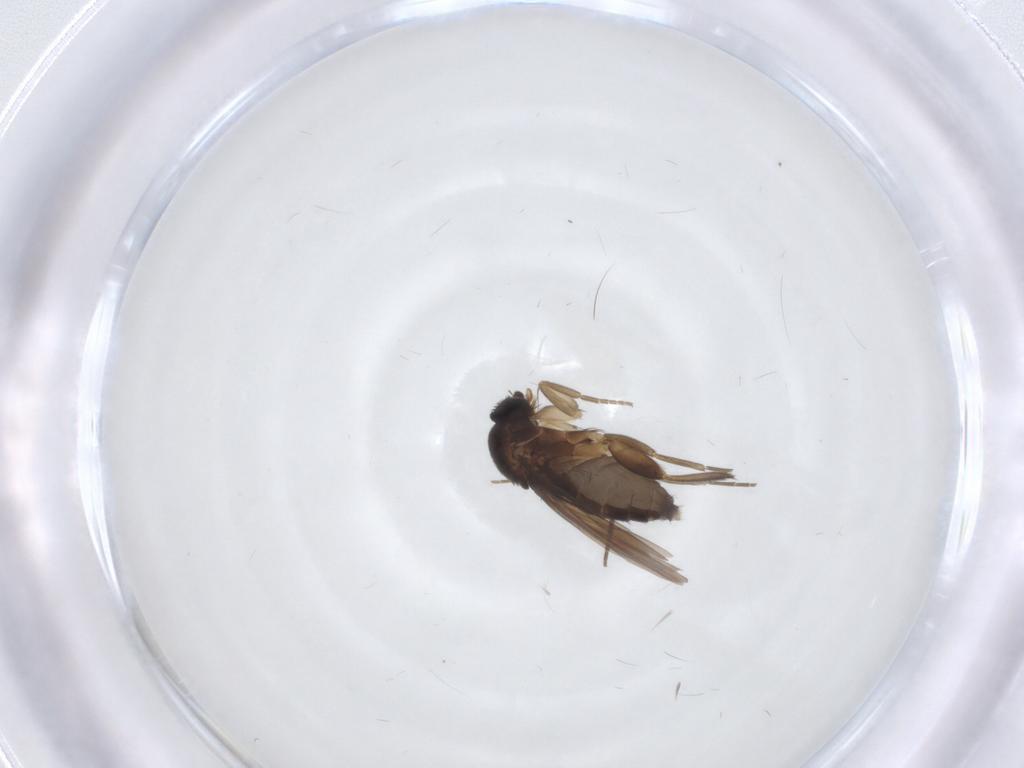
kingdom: Animalia
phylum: Arthropoda
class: Insecta
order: Diptera
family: Phoridae
